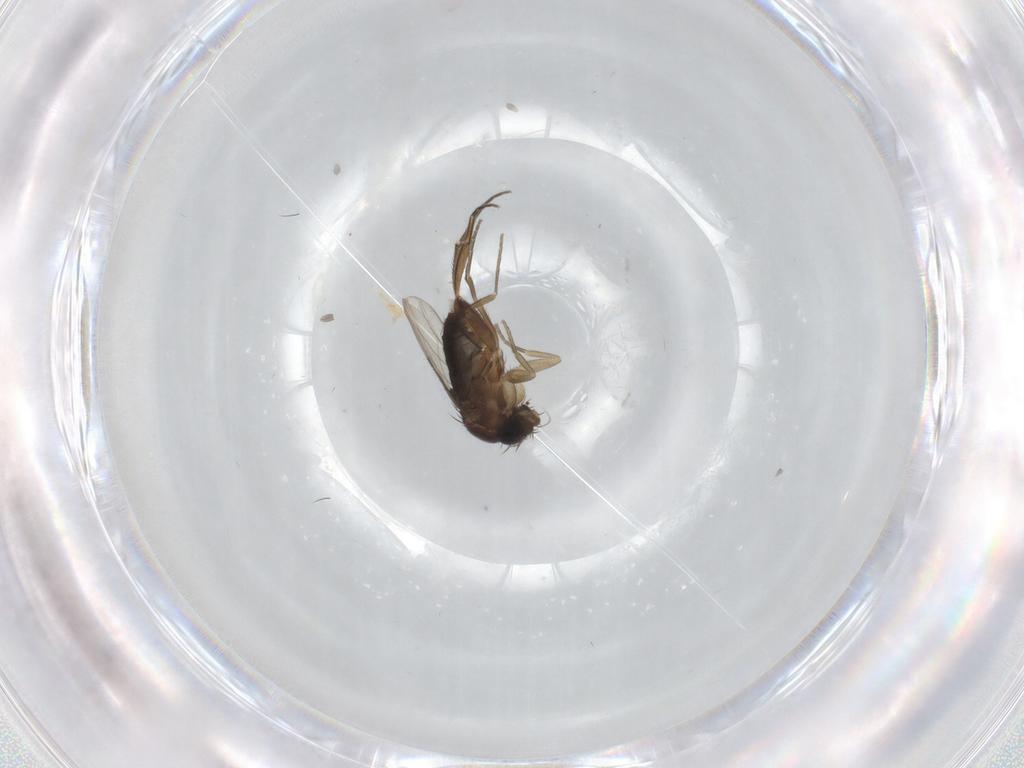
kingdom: Animalia
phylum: Arthropoda
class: Insecta
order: Diptera
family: Phoridae
